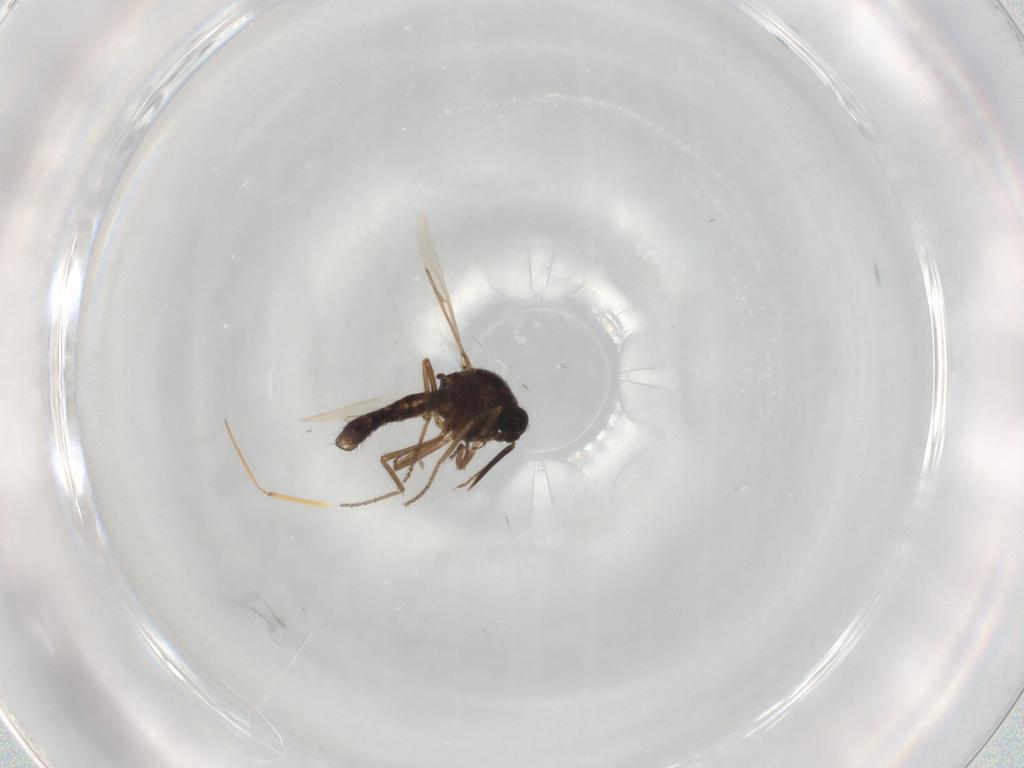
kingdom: Animalia
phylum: Arthropoda
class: Insecta
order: Diptera
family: Ceratopogonidae
